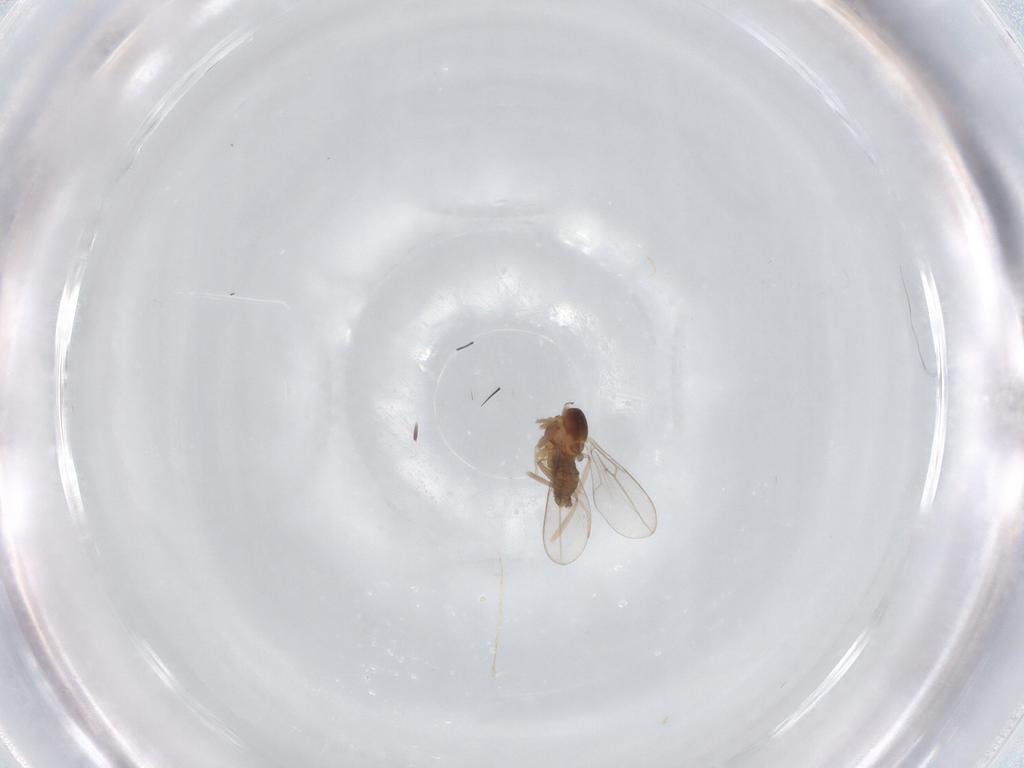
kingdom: Animalia
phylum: Arthropoda
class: Insecta
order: Diptera
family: Cecidomyiidae
